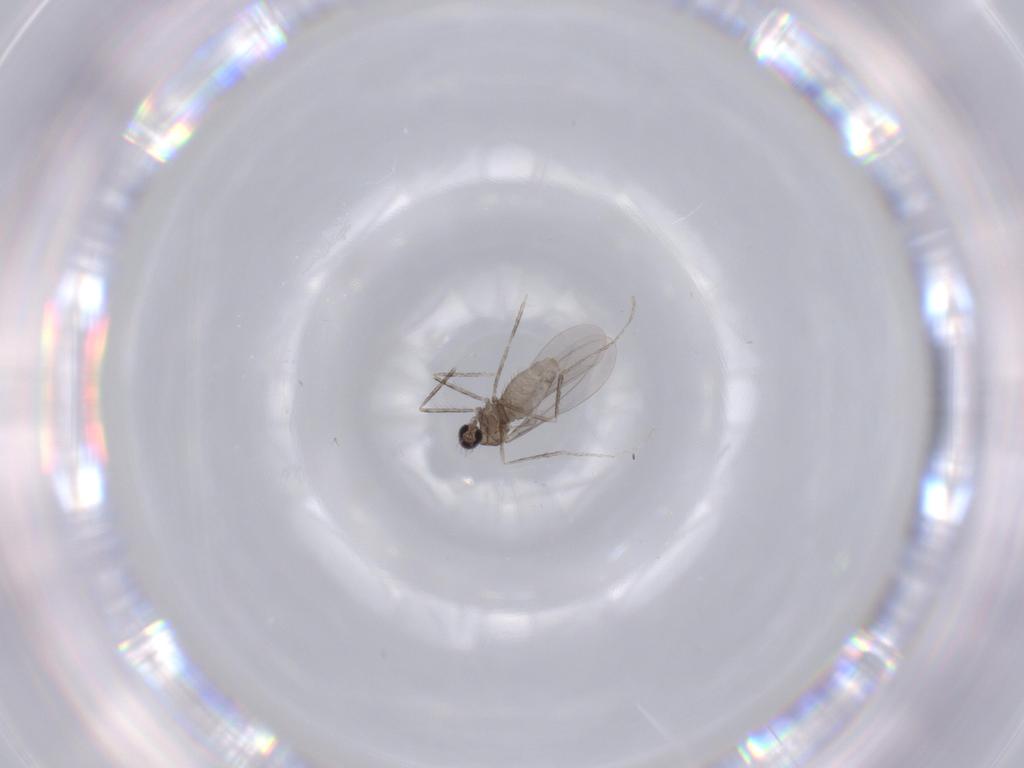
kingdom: Animalia
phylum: Arthropoda
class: Insecta
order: Diptera
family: Cecidomyiidae
